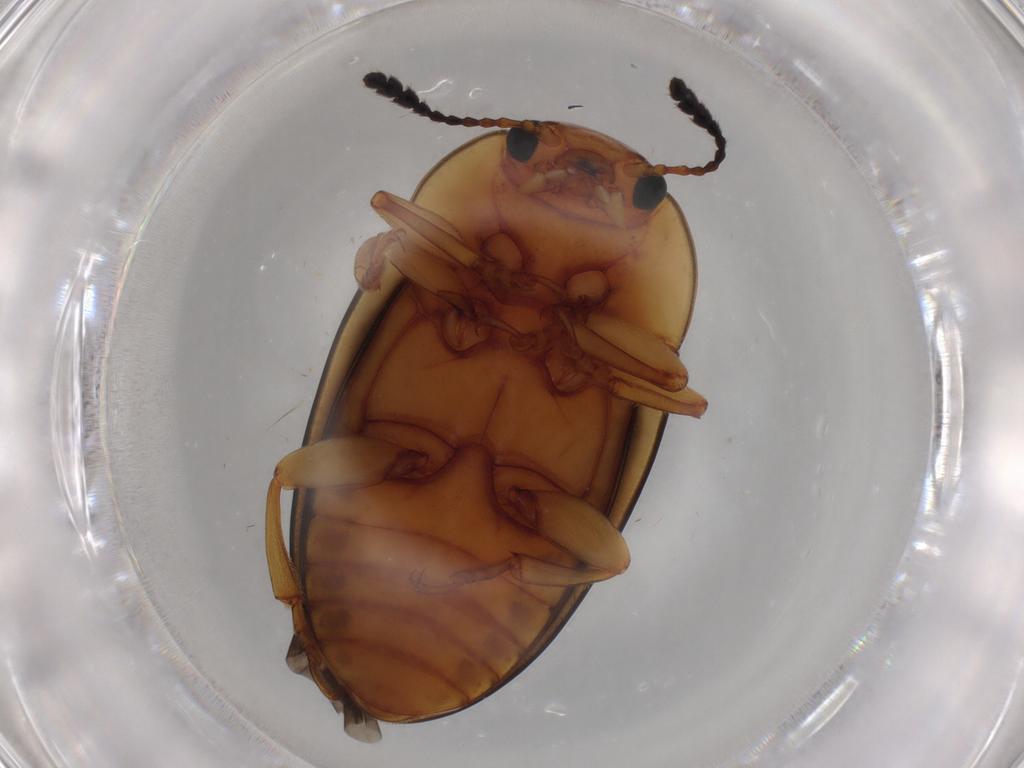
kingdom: Animalia
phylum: Arthropoda
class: Insecta
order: Coleoptera
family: Erotylidae
